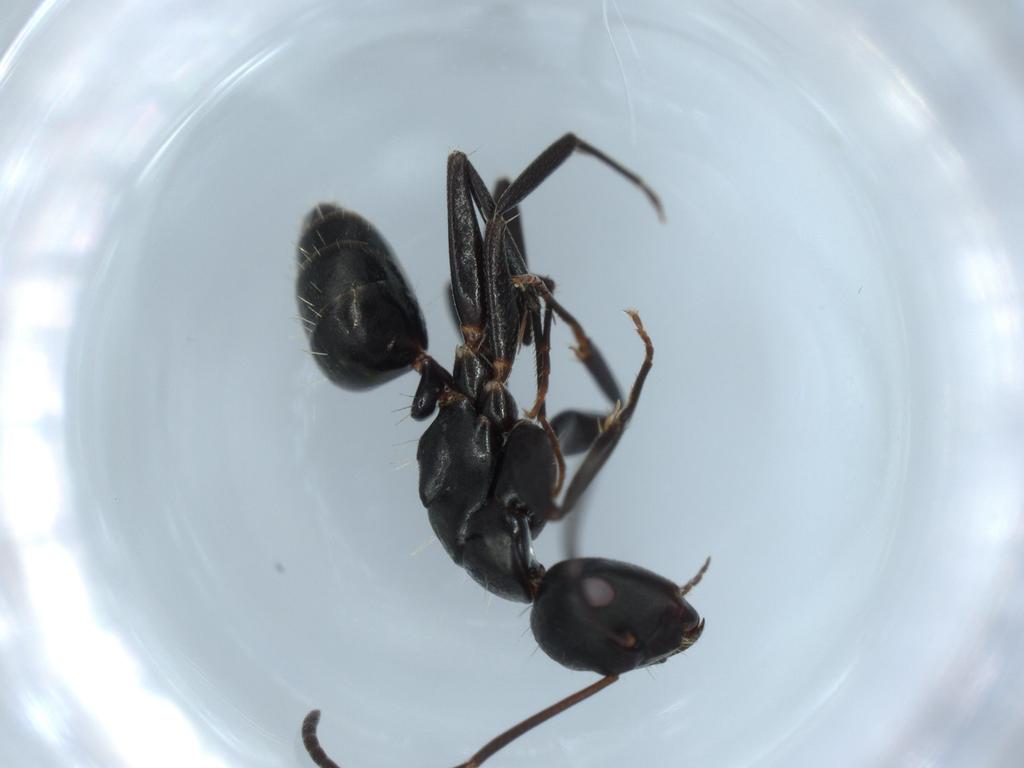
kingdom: Animalia
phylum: Arthropoda
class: Insecta
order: Hymenoptera
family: Formicidae
